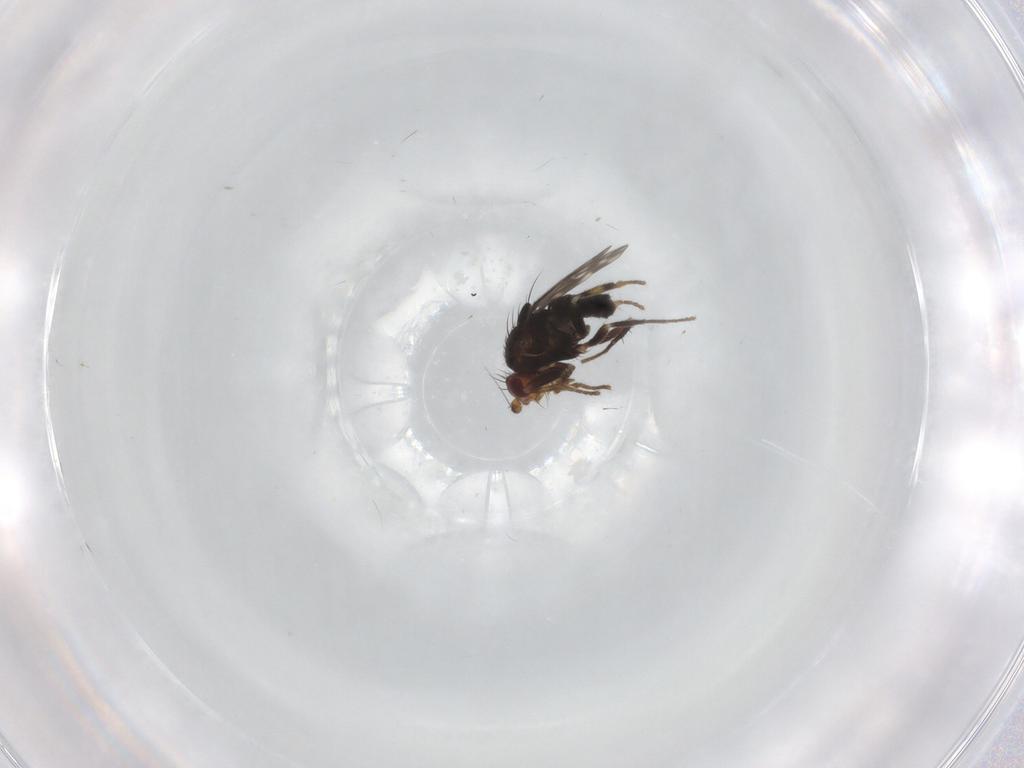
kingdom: Animalia
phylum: Arthropoda
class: Insecta
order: Diptera
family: Sphaeroceridae
